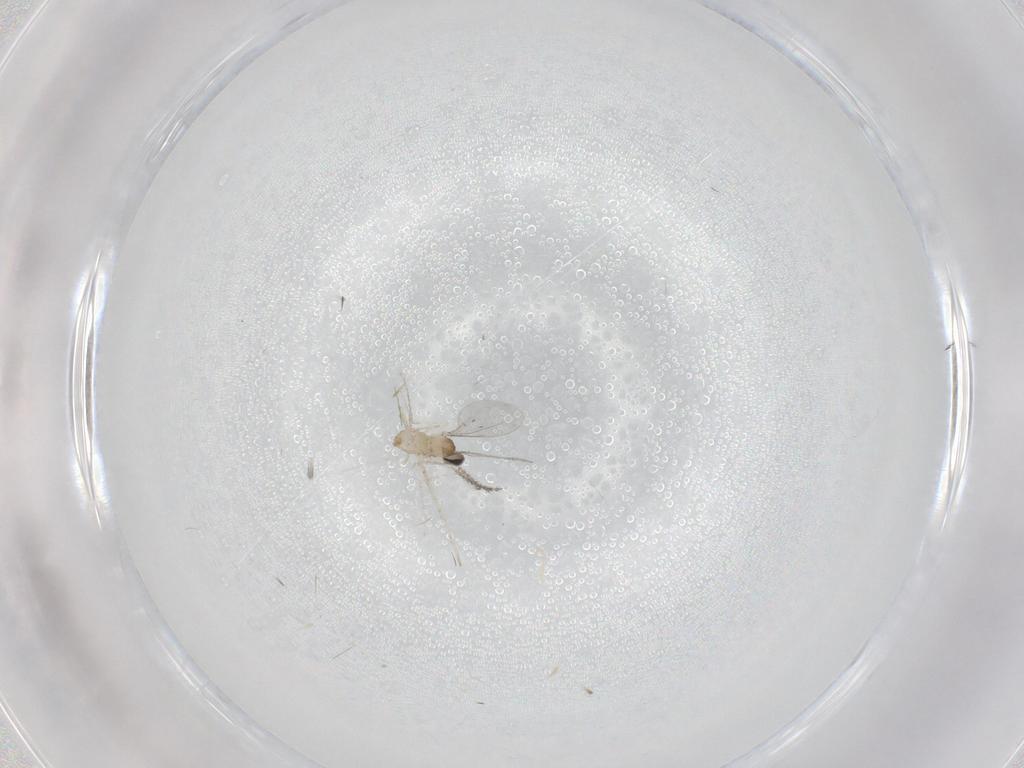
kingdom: Animalia
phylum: Arthropoda
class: Insecta
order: Diptera
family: Chironomidae
